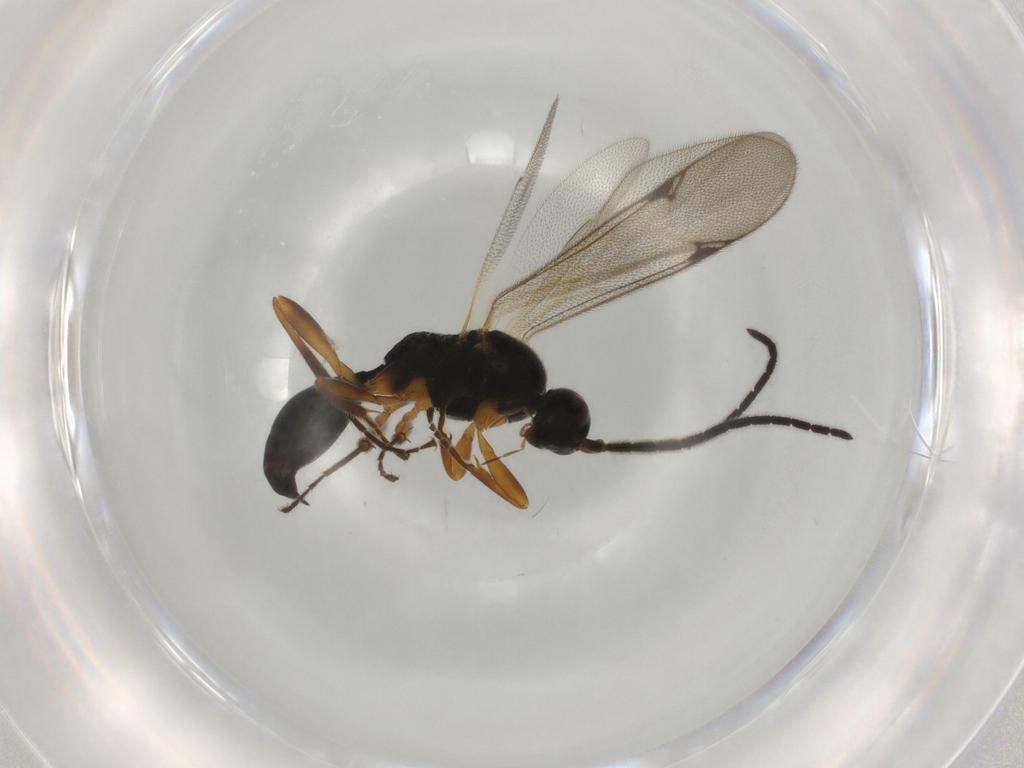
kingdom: Animalia
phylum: Arthropoda
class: Insecta
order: Hymenoptera
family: Proctotrupidae
